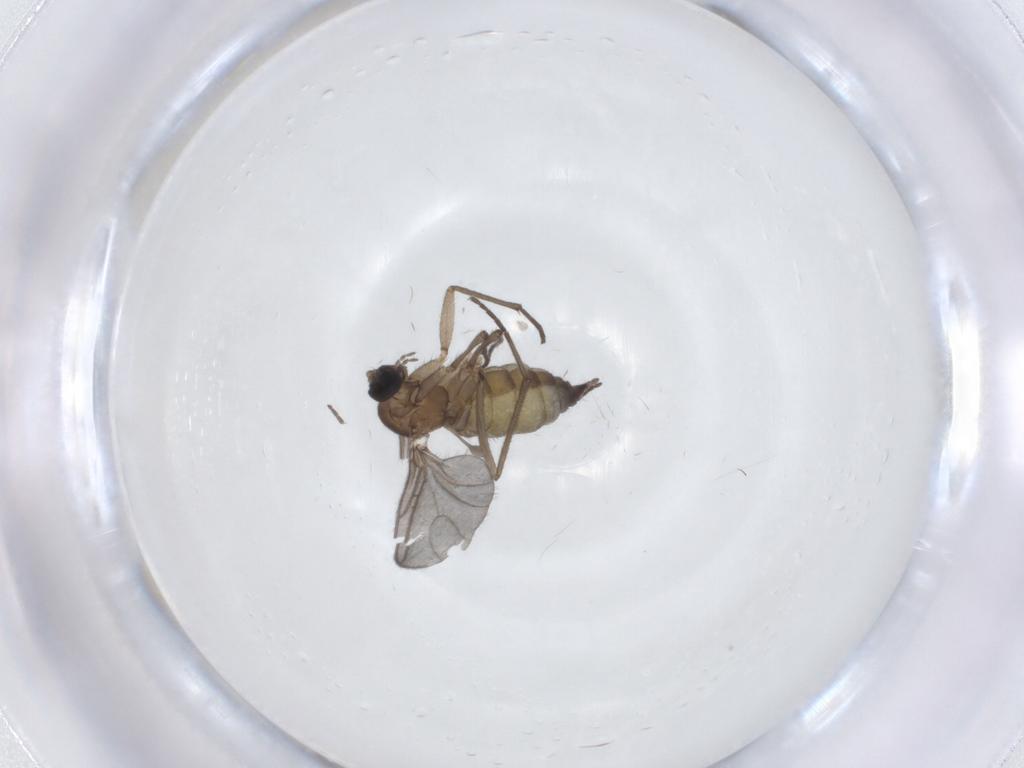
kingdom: Animalia
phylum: Arthropoda
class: Insecta
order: Diptera
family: Sciaridae
